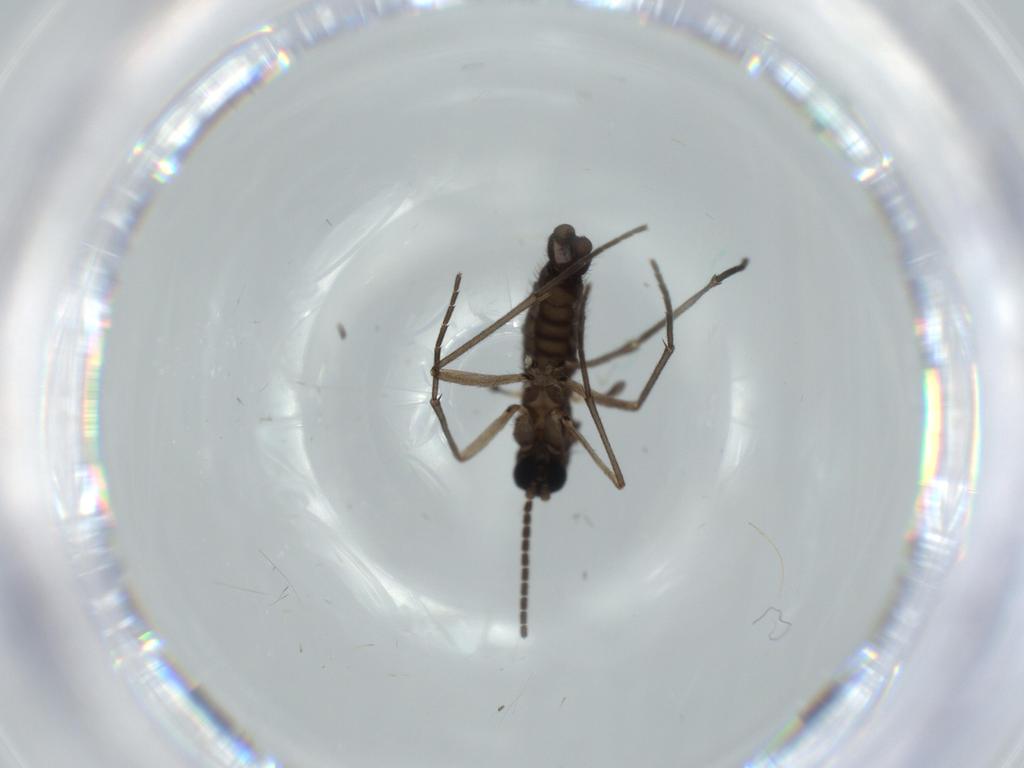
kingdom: Animalia
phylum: Arthropoda
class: Insecta
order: Diptera
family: Sciaridae
